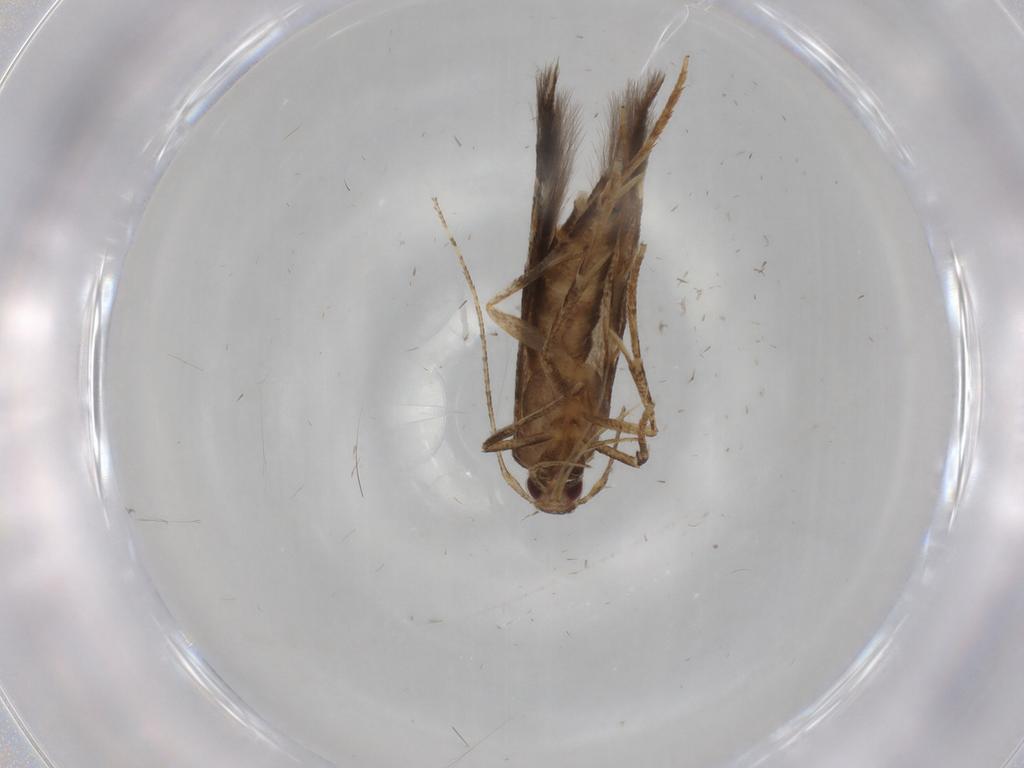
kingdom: Animalia
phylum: Arthropoda
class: Insecta
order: Lepidoptera
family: Cosmopterigidae
